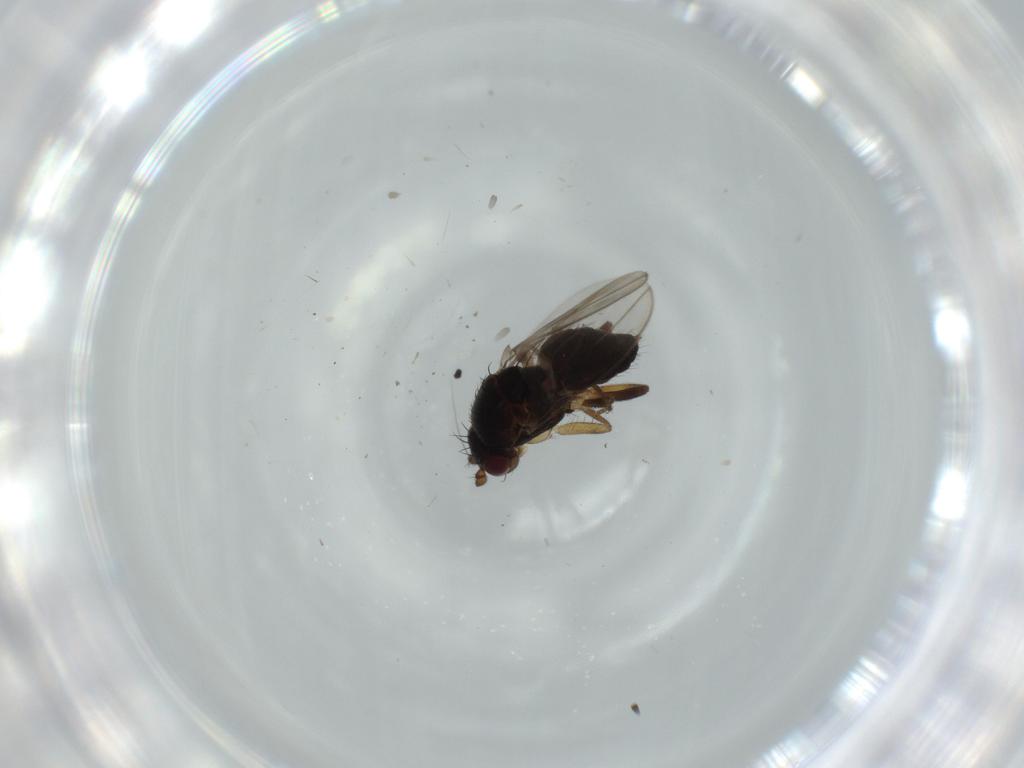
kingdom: Animalia
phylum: Arthropoda
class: Insecta
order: Diptera
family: Sphaeroceridae
